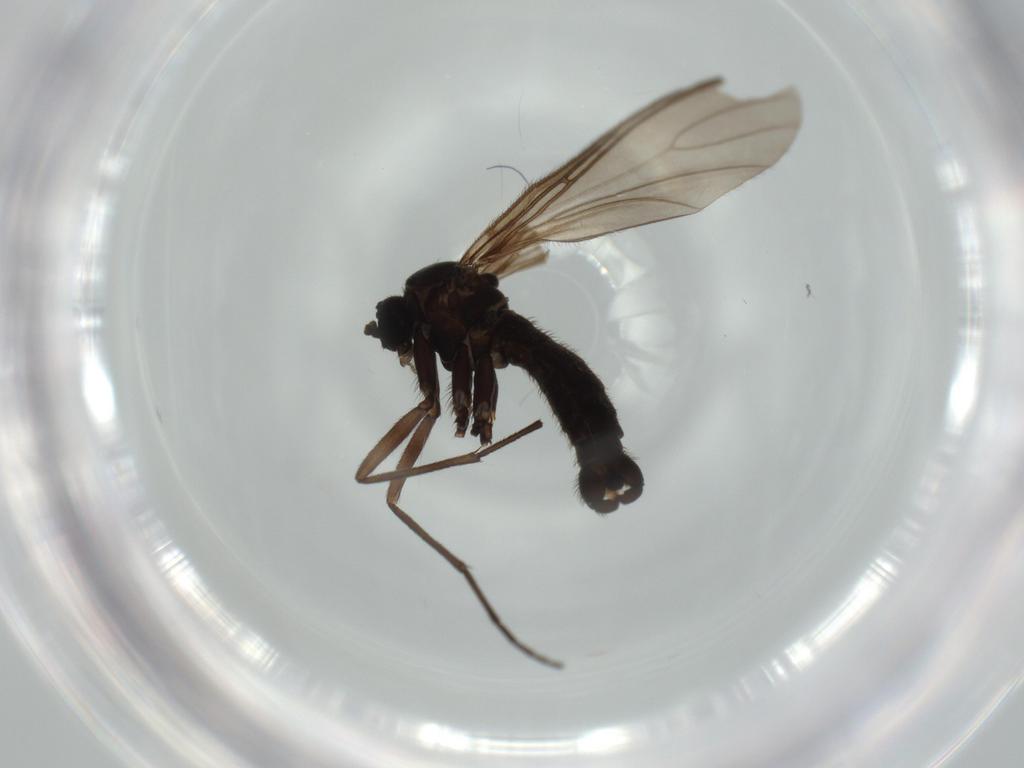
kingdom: Animalia
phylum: Arthropoda
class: Insecta
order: Diptera
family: Sciaridae
